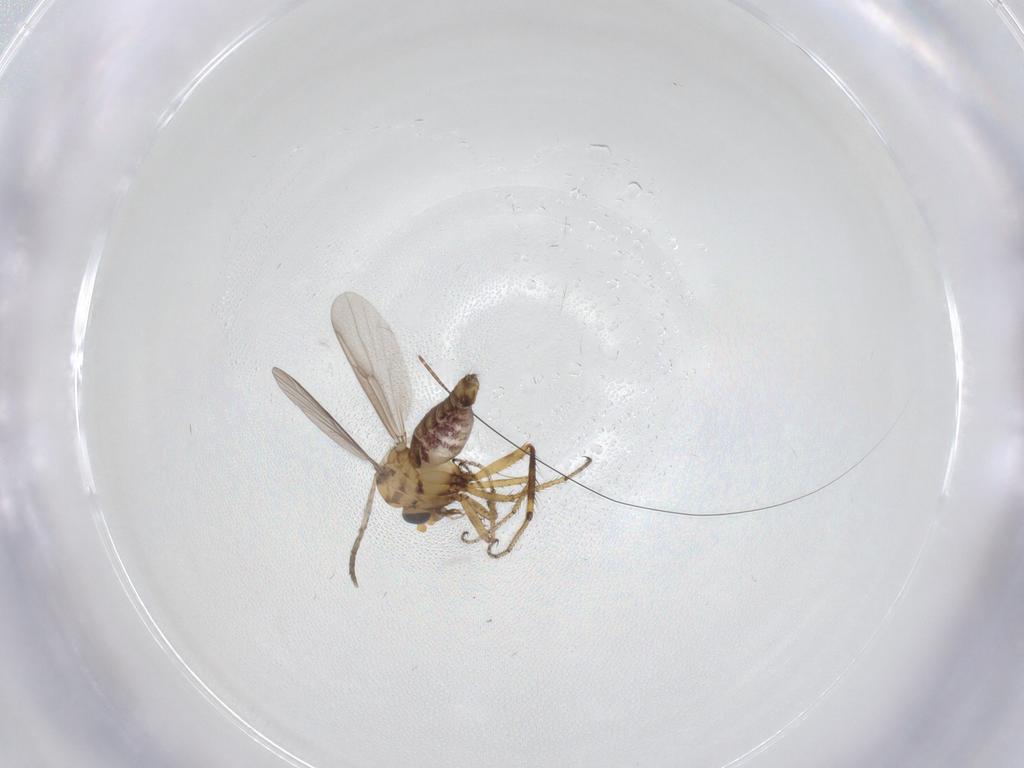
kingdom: Animalia
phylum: Arthropoda
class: Insecta
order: Diptera
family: Ceratopogonidae
